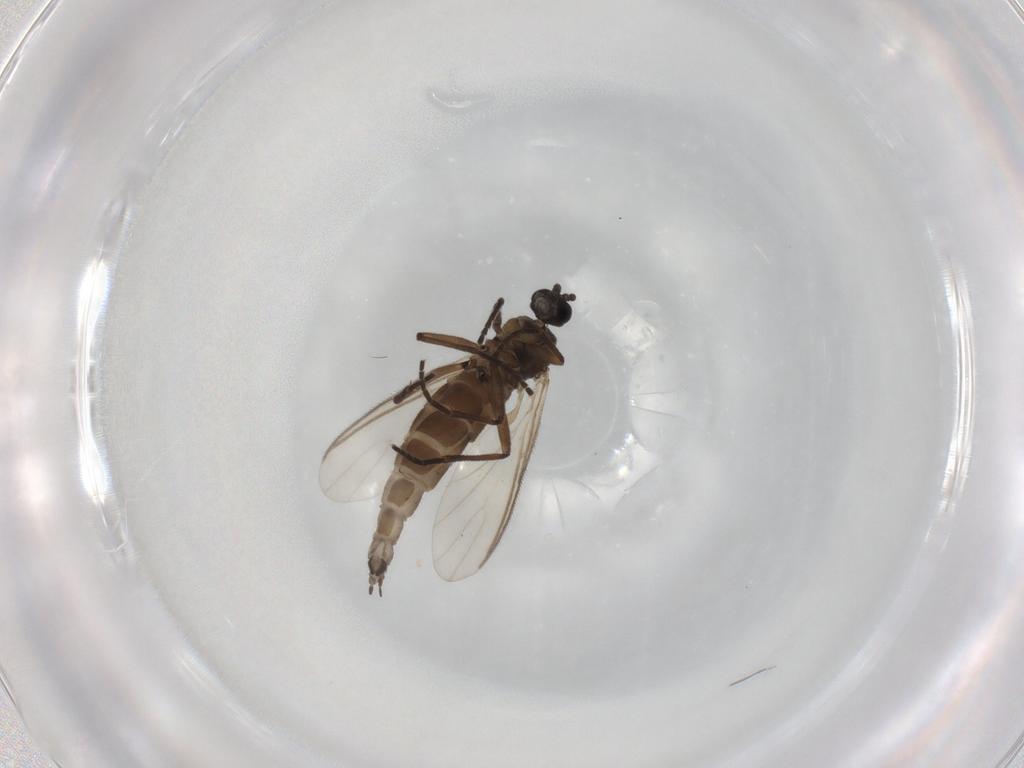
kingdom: Animalia
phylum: Arthropoda
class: Insecta
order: Diptera
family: Sciaridae
